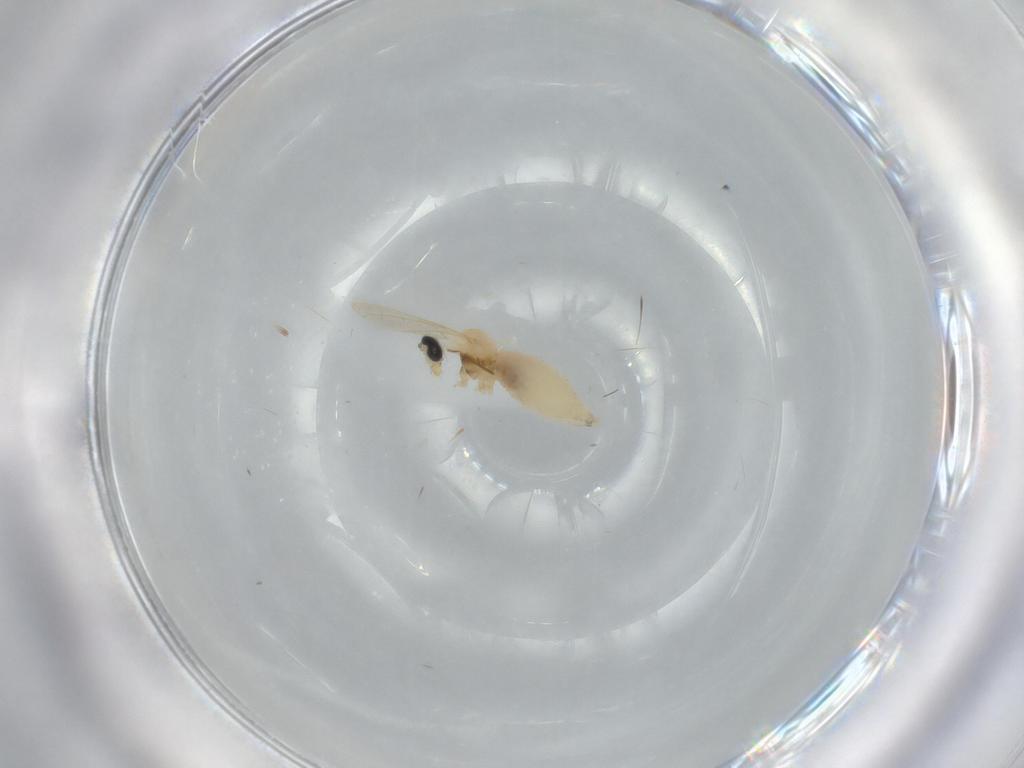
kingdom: Animalia
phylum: Arthropoda
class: Insecta
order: Diptera
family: Cecidomyiidae
